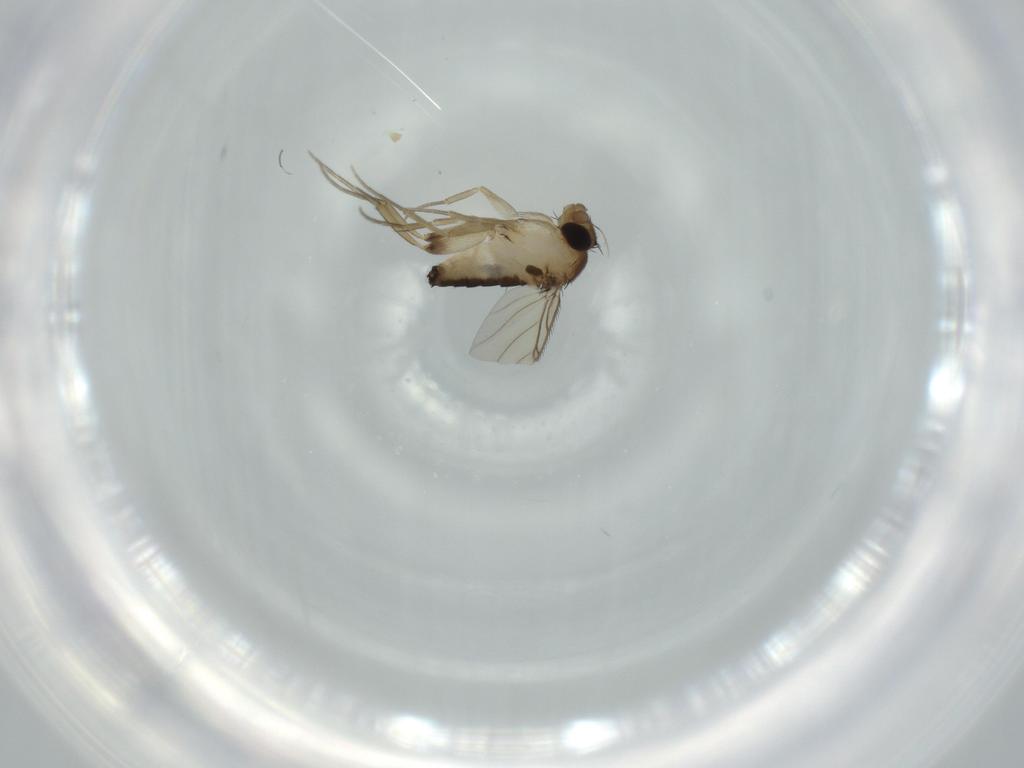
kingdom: Animalia
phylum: Arthropoda
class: Insecta
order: Diptera
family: Phoridae
